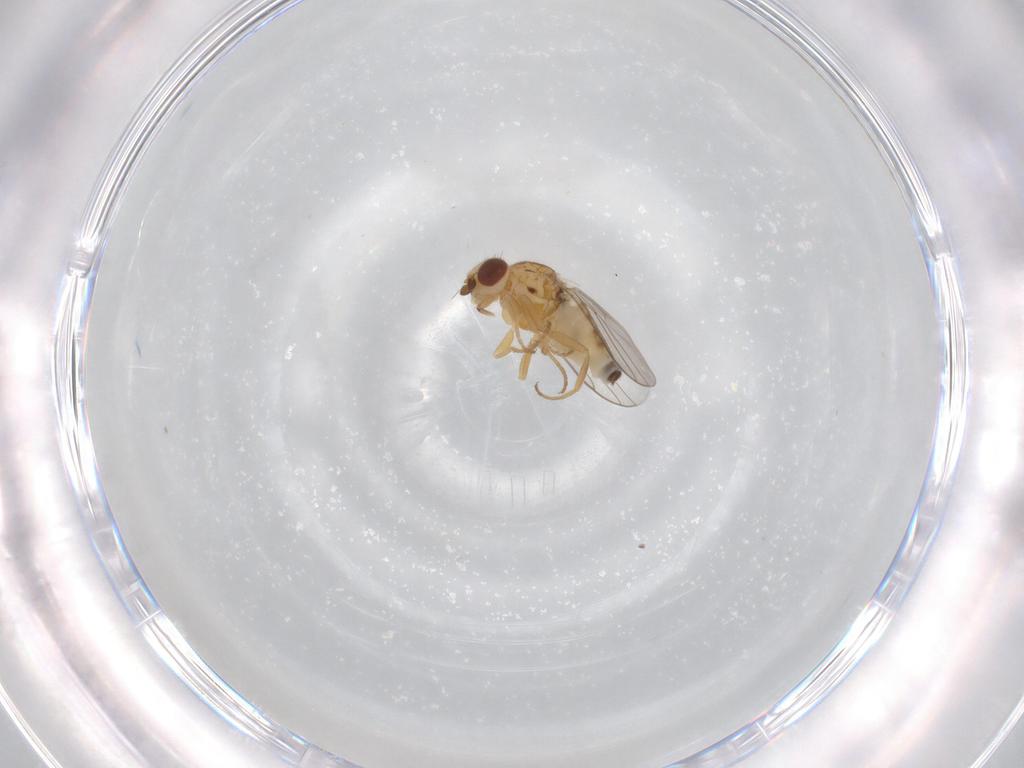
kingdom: Animalia
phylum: Arthropoda
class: Insecta
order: Diptera
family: Chloropidae
